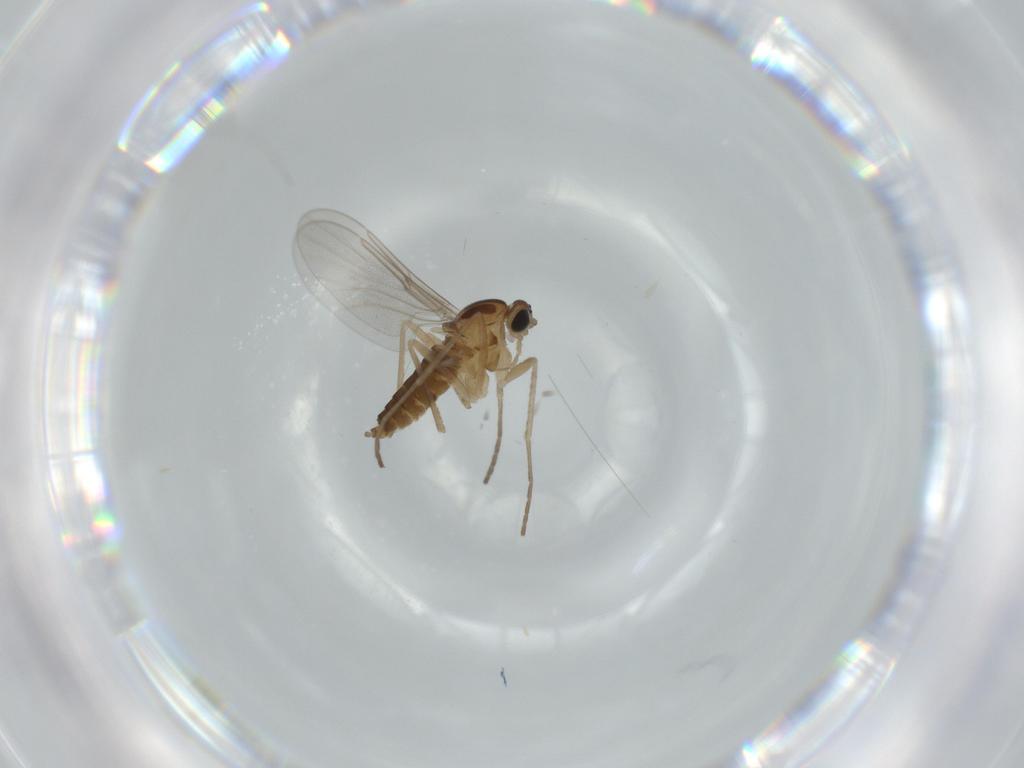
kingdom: Animalia
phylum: Arthropoda
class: Insecta
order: Diptera
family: Cecidomyiidae
